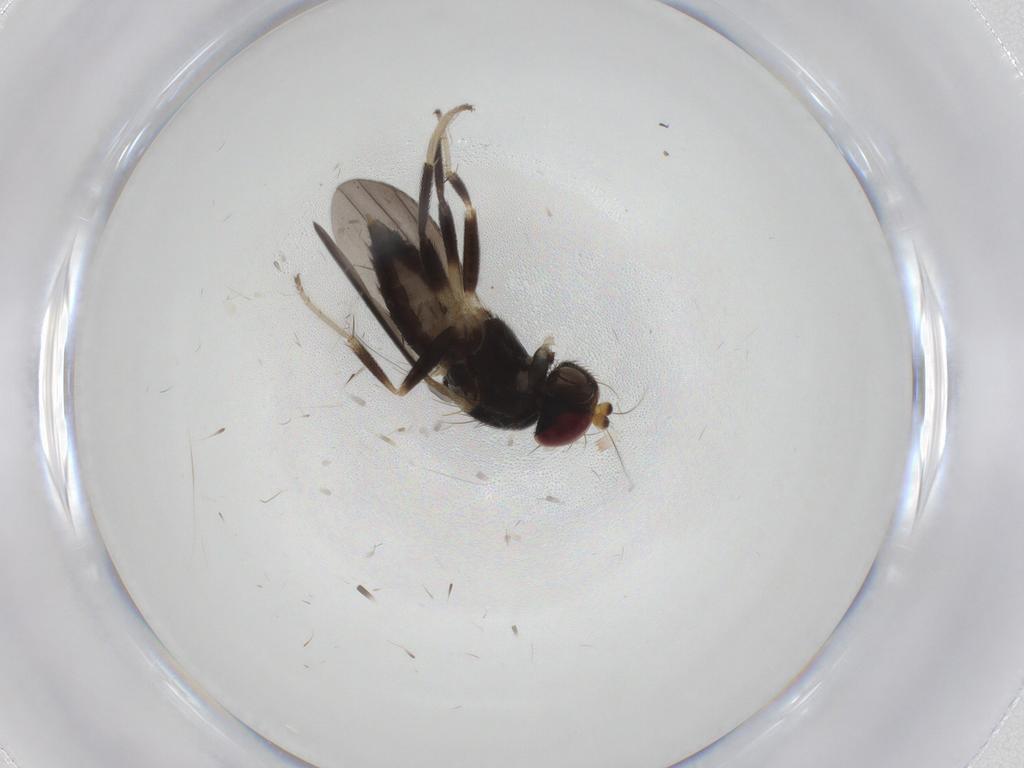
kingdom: Animalia
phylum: Arthropoda
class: Insecta
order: Diptera
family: Clusiidae
